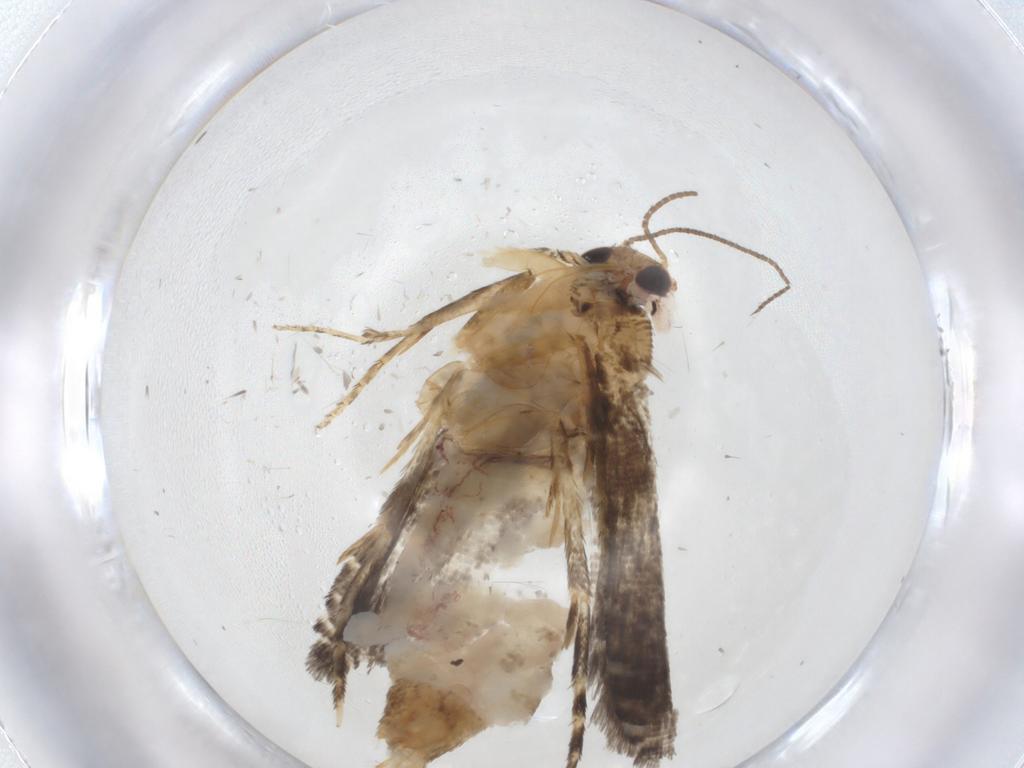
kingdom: Animalia
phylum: Arthropoda
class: Insecta
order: Lepidoptera
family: Glyphipterigidae
